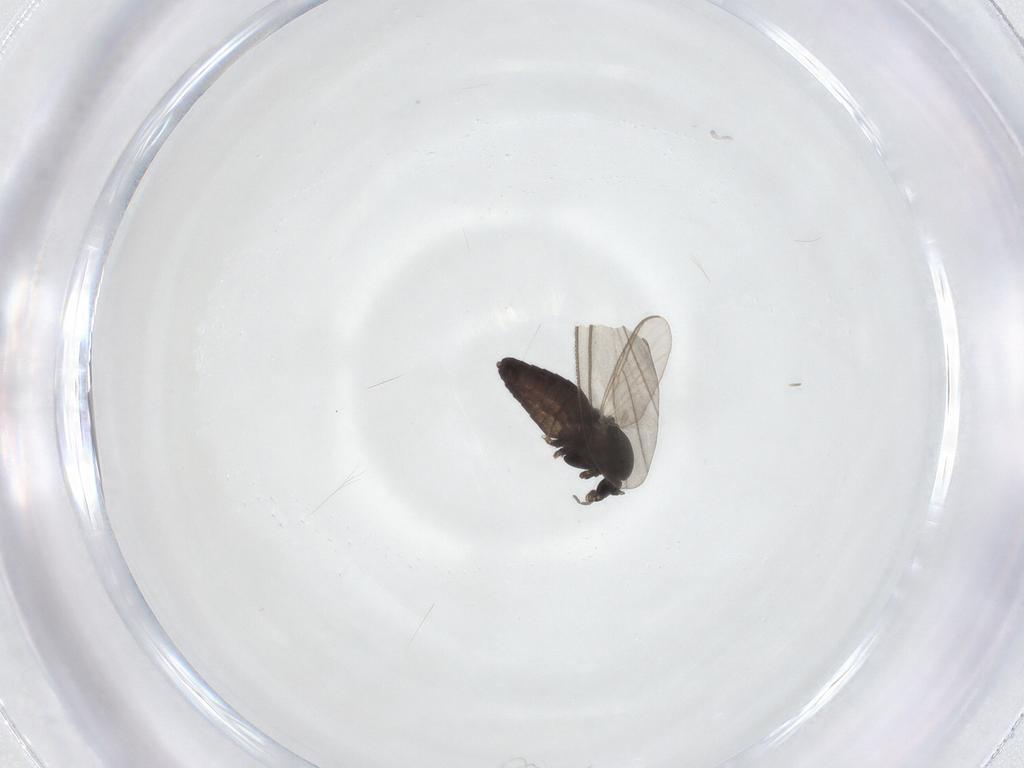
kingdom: Animalia
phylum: Arthropoda
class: Insecta
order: Diptera
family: Chironomidae
